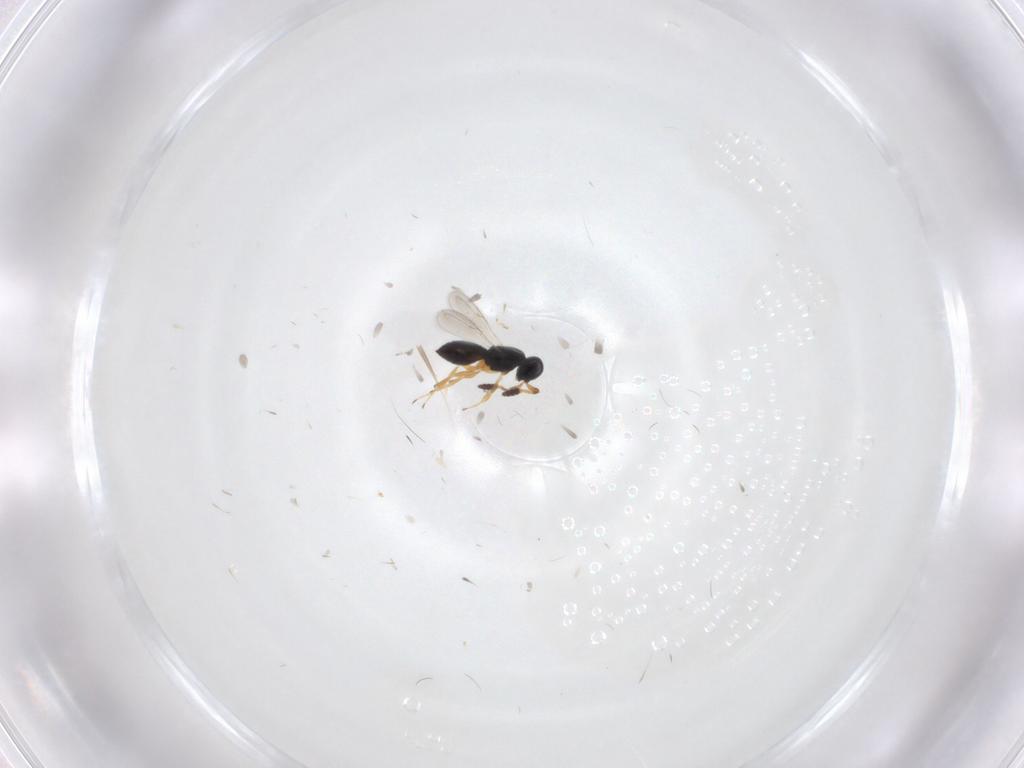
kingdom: Animalia
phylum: Arthropoda
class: Insecta
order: Hymenoptera
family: Scelionidae
